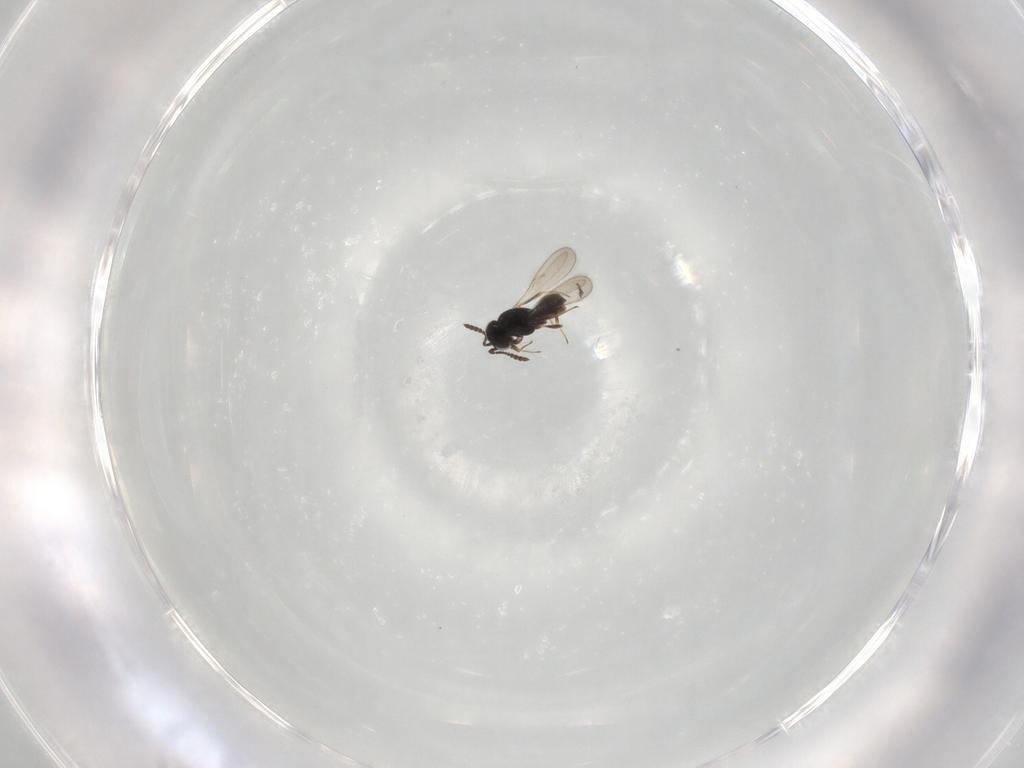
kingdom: Animalia
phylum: Arthropoda
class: Insecta
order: Hymenoptera
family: Scelionidae
